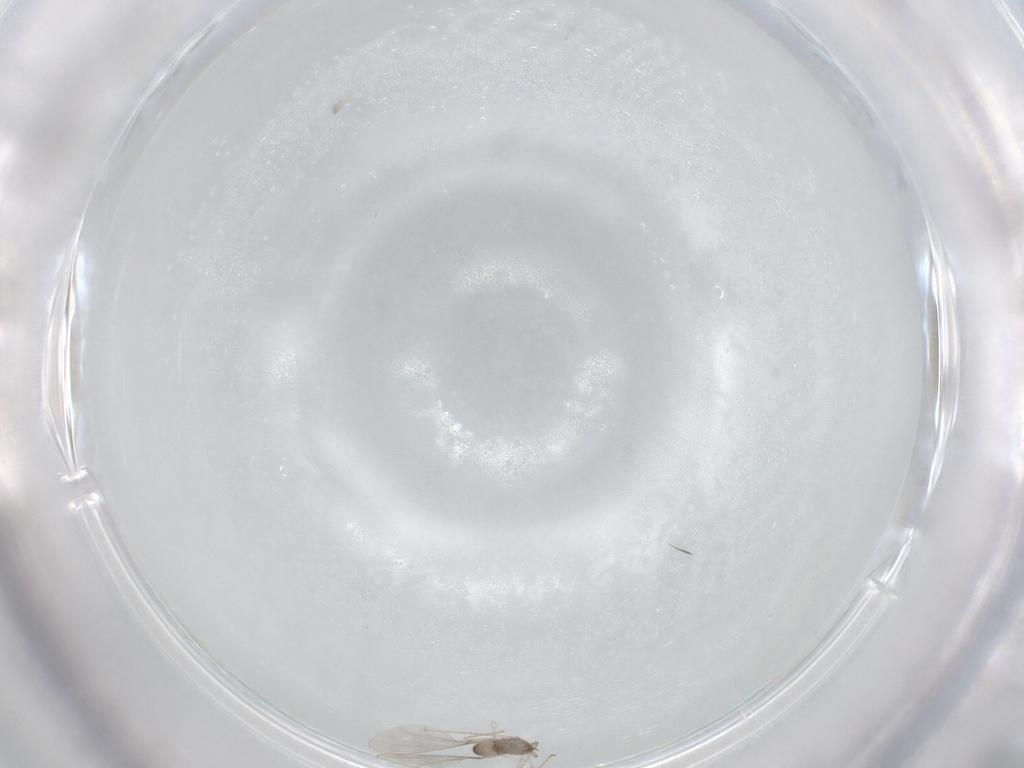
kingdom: Animalia
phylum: Arthropoda
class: Insecta
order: Diptera
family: Cecidomyiidae
